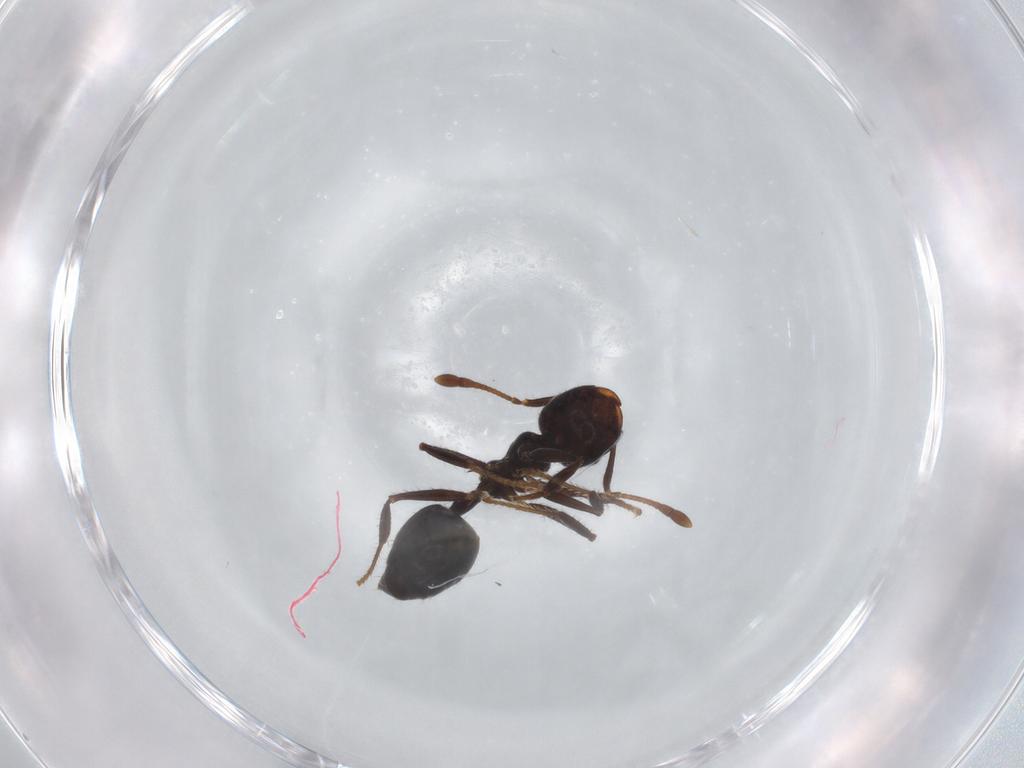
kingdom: Animalia
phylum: Arthropoda
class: Insecta
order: Hymenoptera
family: Formicidae
